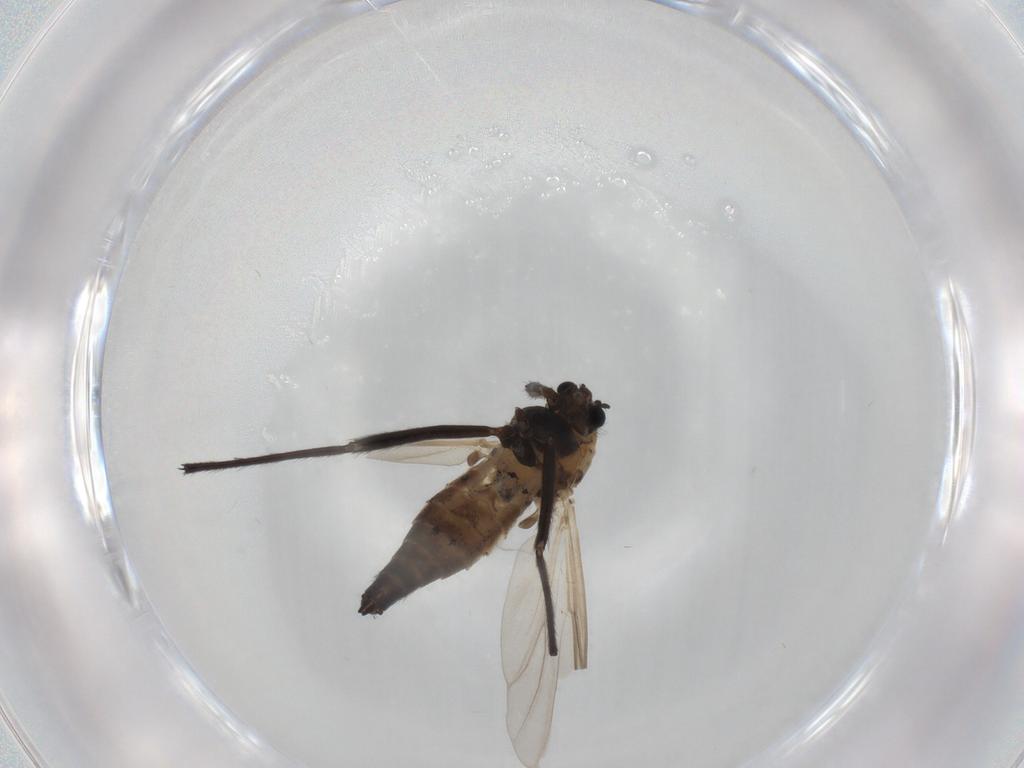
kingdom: Animalia
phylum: Arthropoda
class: Insecta
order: Diptera
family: Chironomidae
